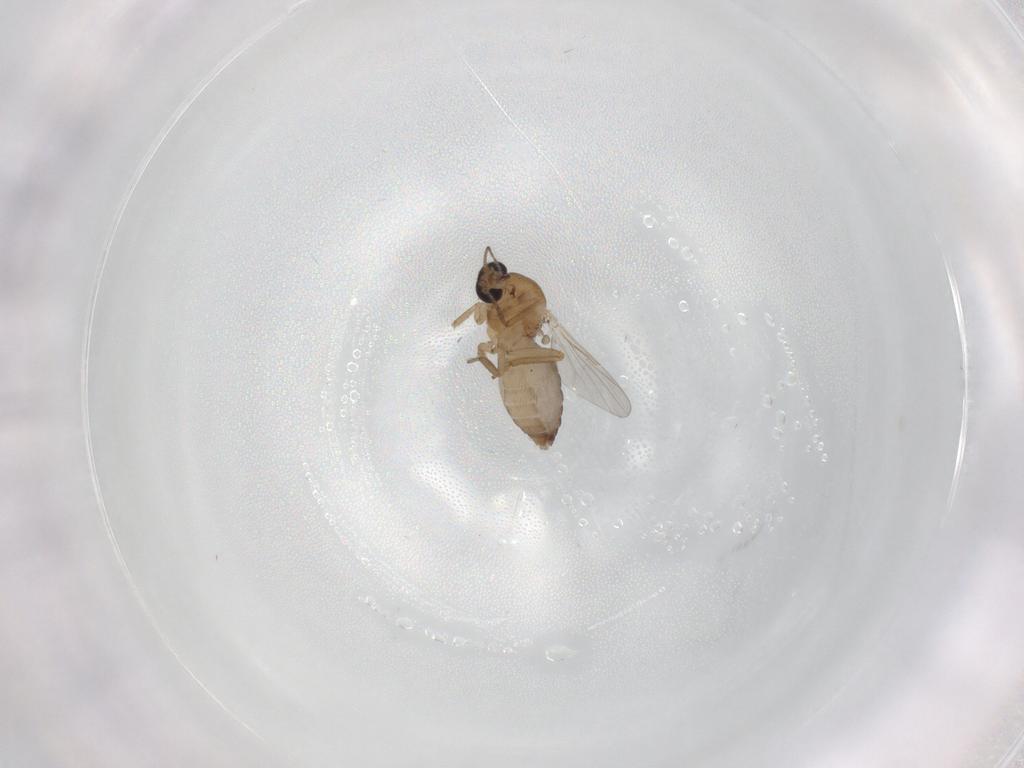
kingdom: Animalia
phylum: Arthropoda
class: Insecta
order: Diptera
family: Ceratopogonidae
